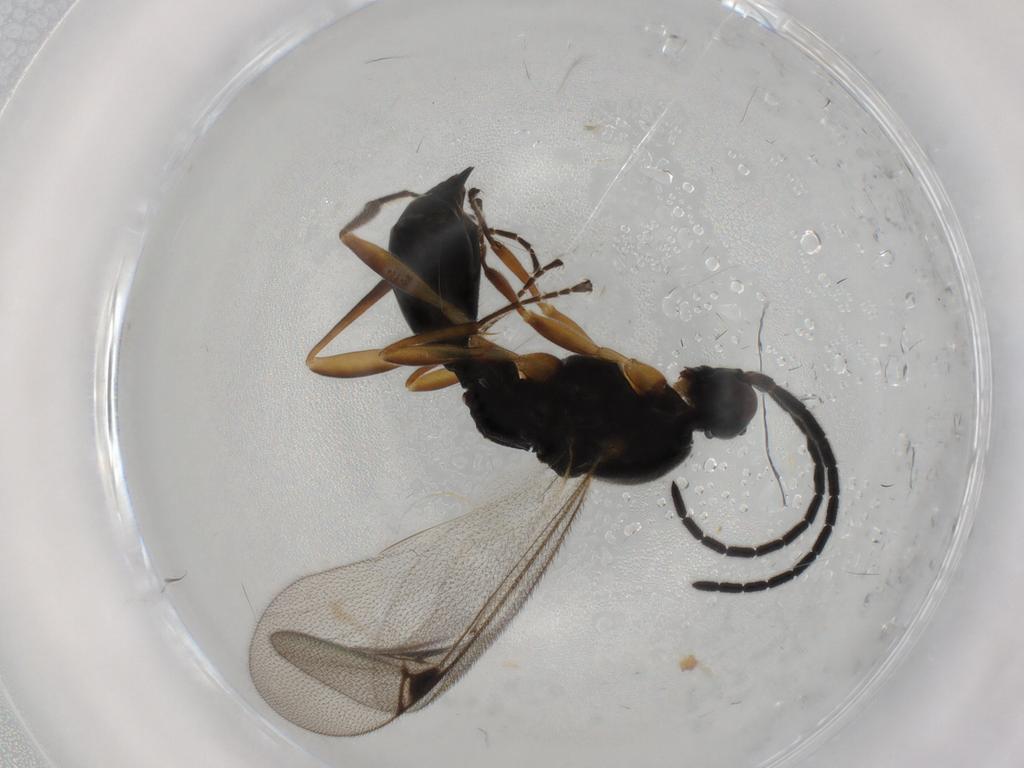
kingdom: Animalia
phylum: Arthropoda
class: Insecta
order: Hymenoptera
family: Proctotrupidae
